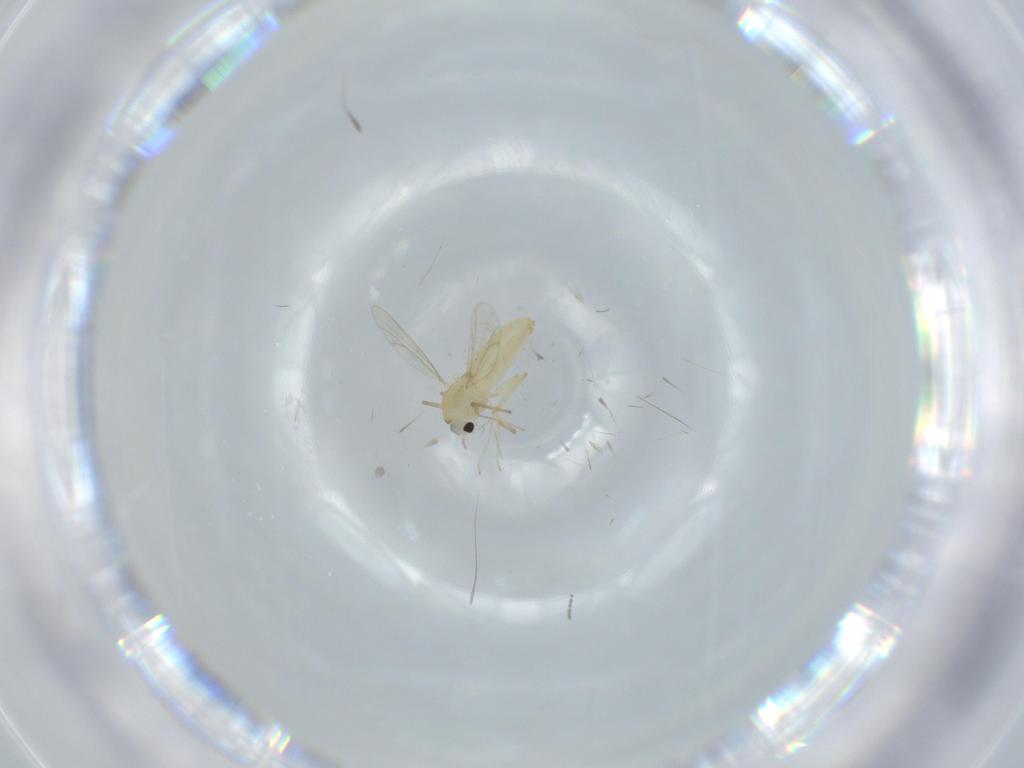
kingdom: Animalia
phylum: Arthropoda
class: Insecta
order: Diptera
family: Chironomidae
